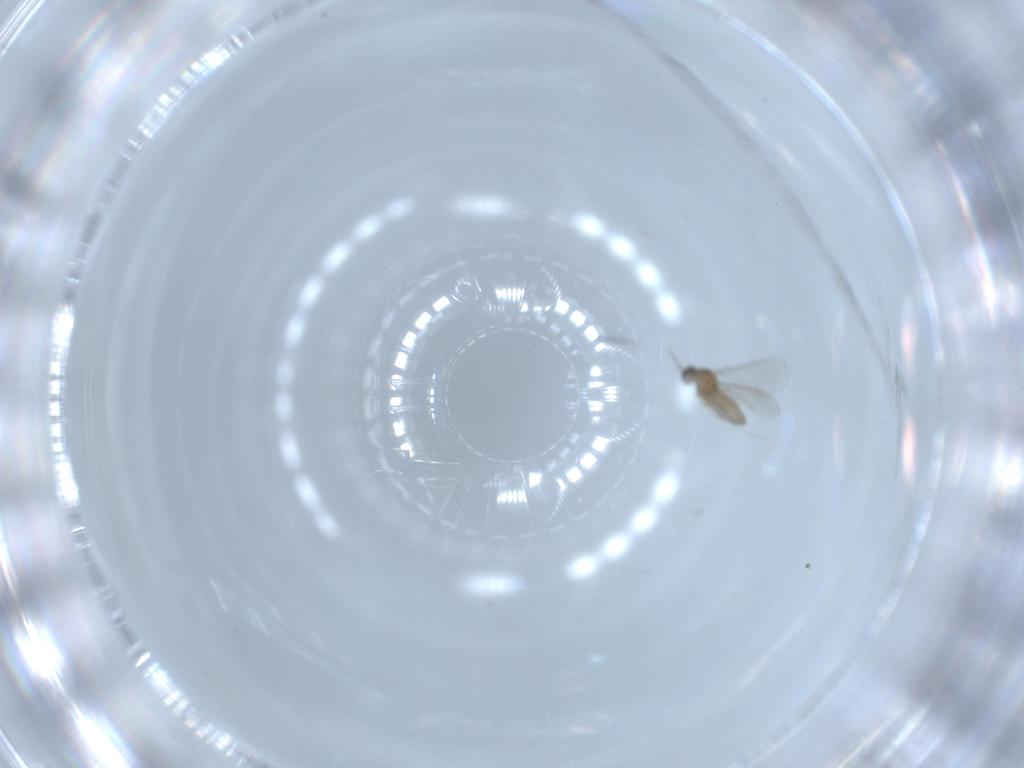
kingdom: Animalia
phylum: Arthropoda
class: Insecta
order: Diptera
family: Cecidomyiidae
